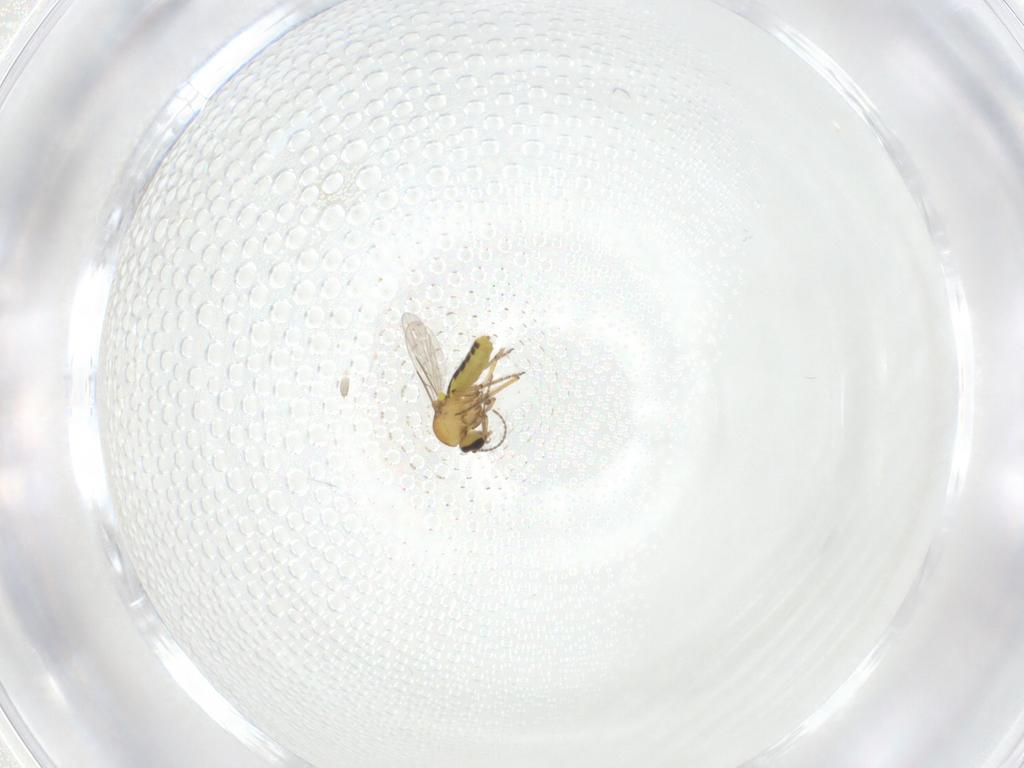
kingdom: Animalia
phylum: Arthropoda
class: Insecta
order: Diptera
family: Ceratopogonidae
